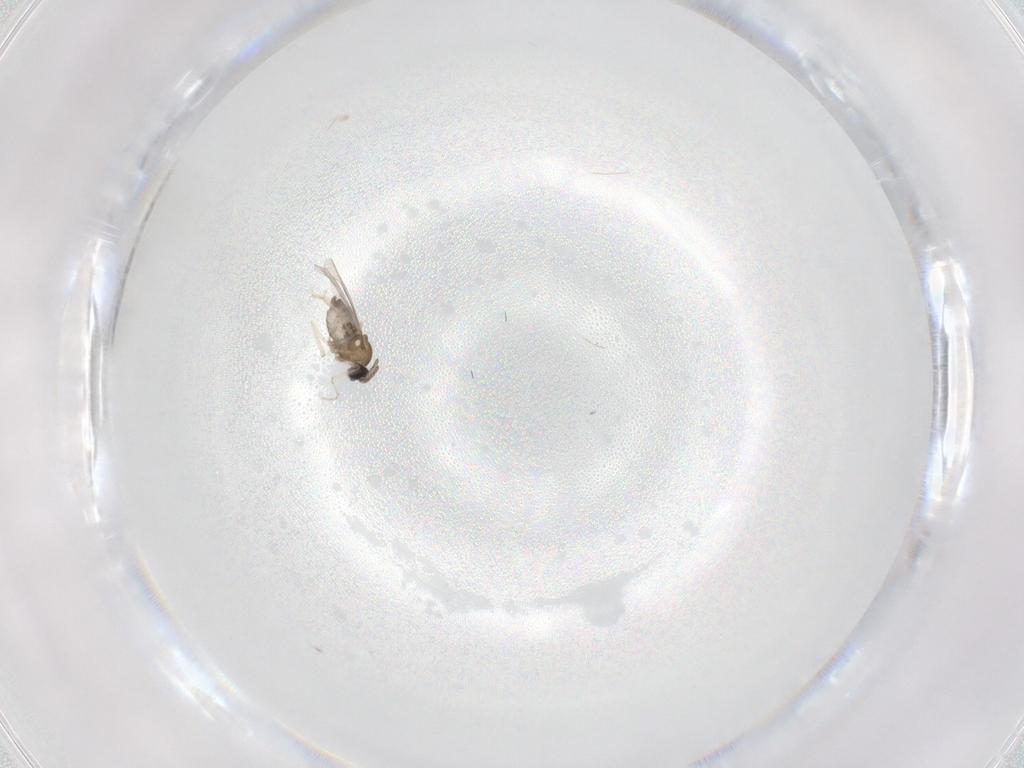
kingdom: Animalia
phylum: Arthropoda
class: Insecta
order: Diptera
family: Cecidomyiidae
